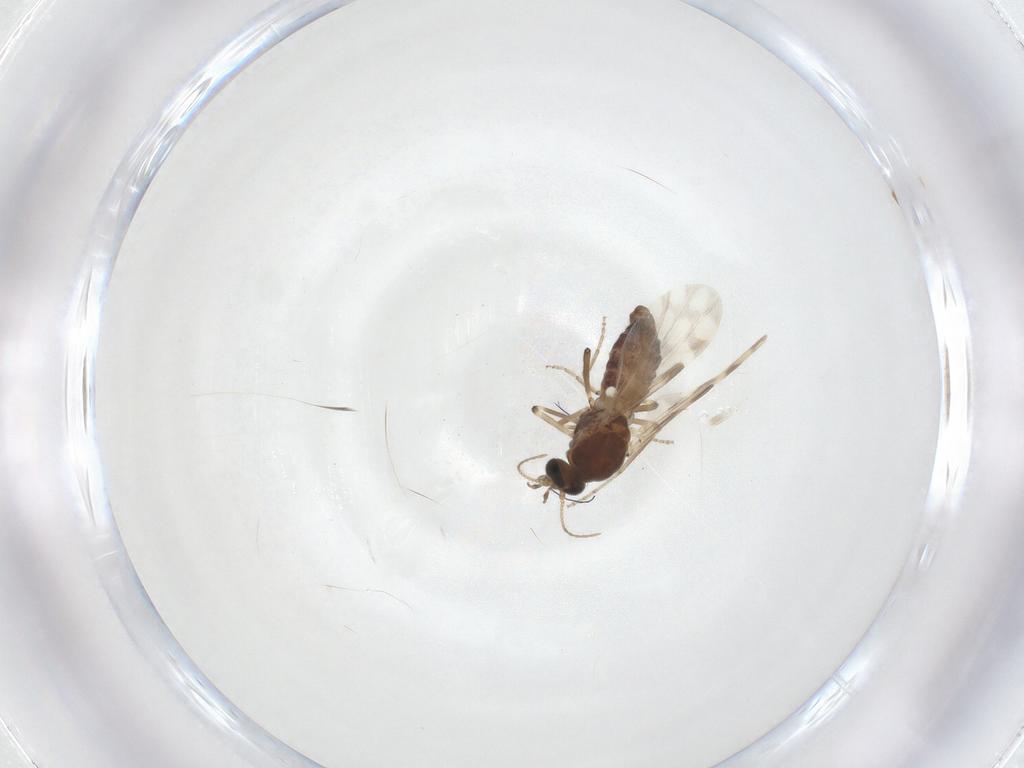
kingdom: Animalia
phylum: Arthropoda
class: Insecta
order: Diptera
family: Ceratopogonidae
